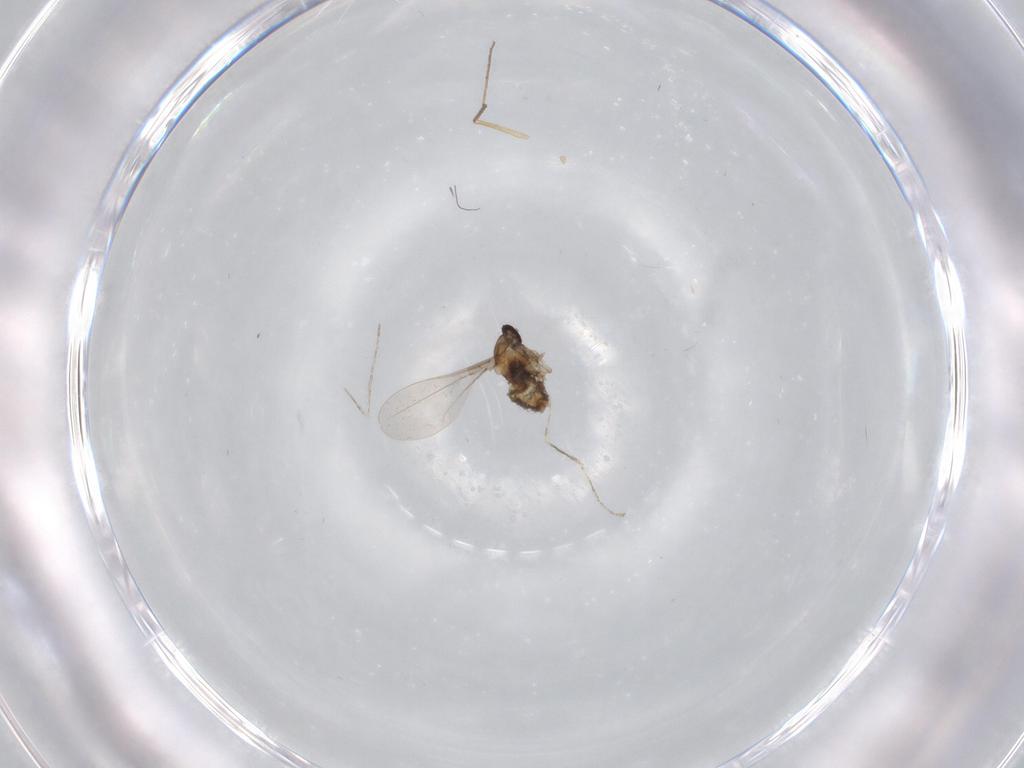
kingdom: Animalia
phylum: Arthropoda
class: Insecta
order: Diptera
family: Cecidomyiidae
